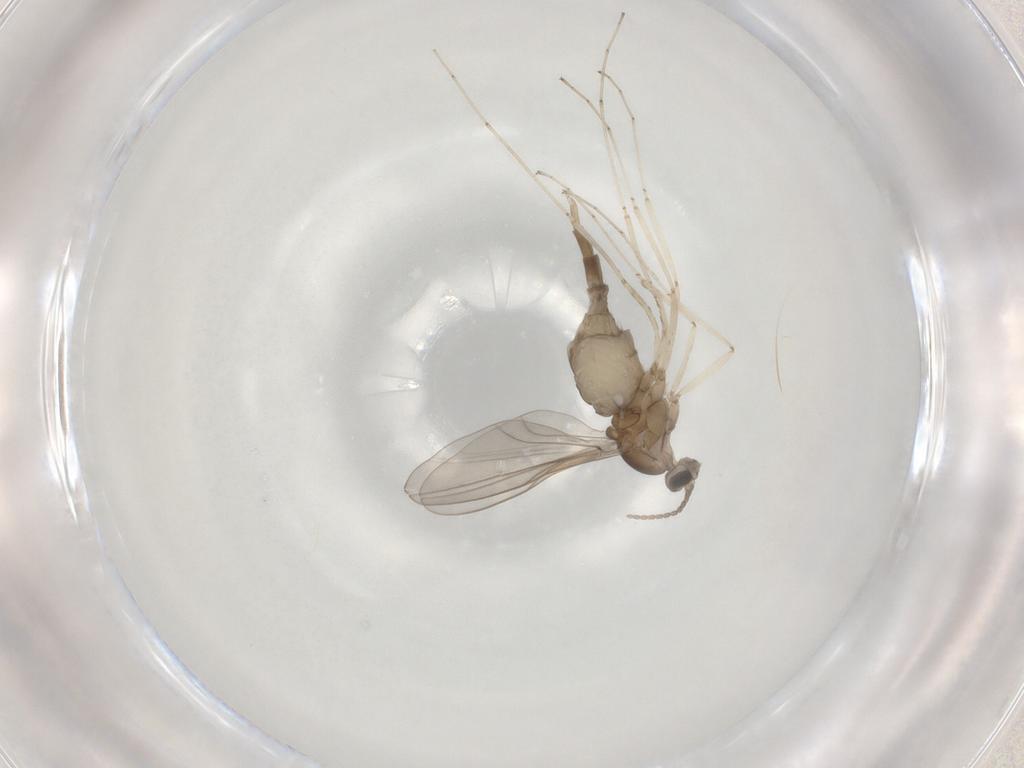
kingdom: Animalia
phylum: Arthropoda
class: Insecta
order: Diptera
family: Cecidomyiidae
